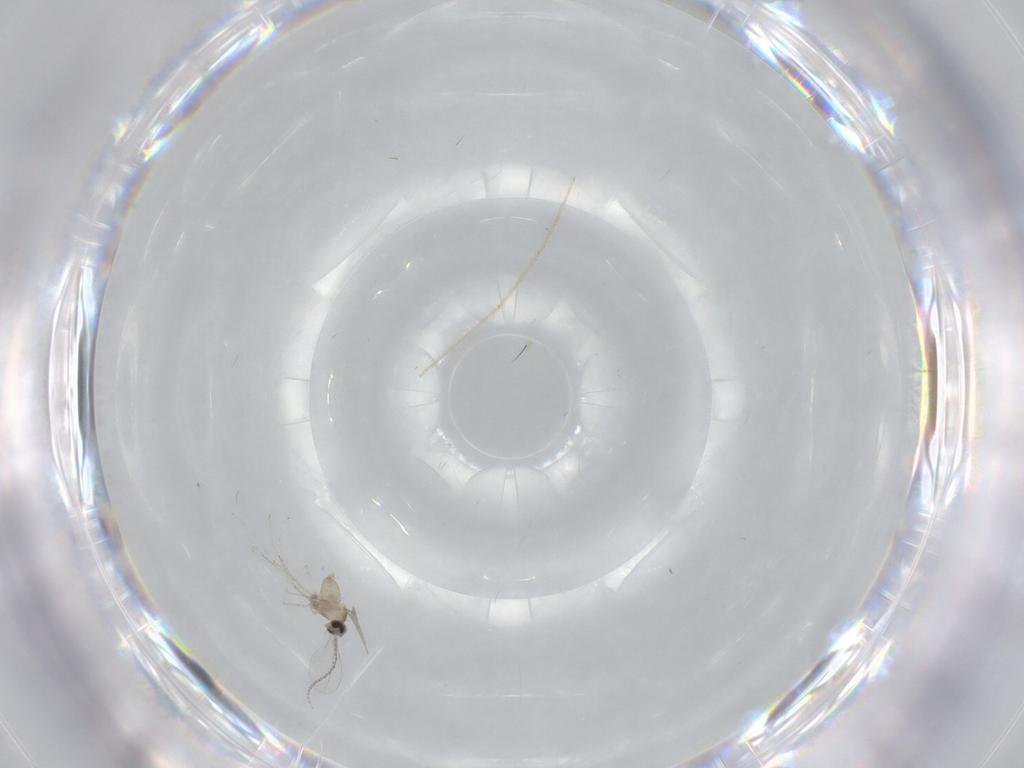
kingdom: Animalia
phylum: Arthropoda
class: Insecta
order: Diptera
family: Cecidomyiidae
